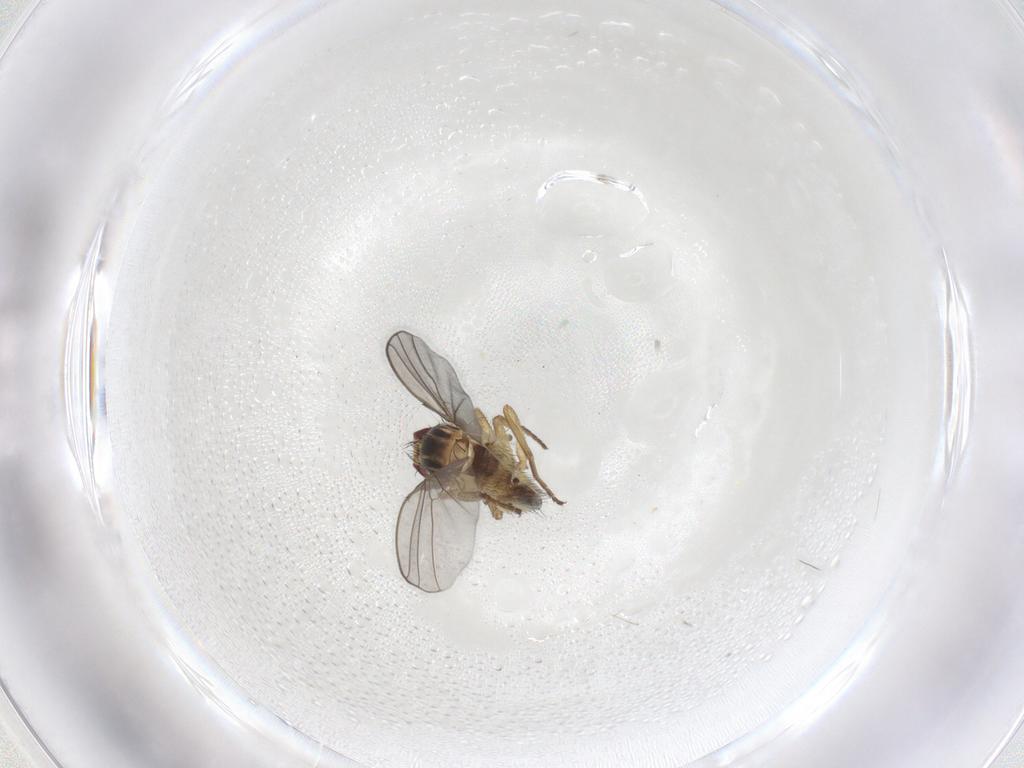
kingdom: Animalia
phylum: Arthropoda
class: Insecta
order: Diptera
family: Agromyzidae
